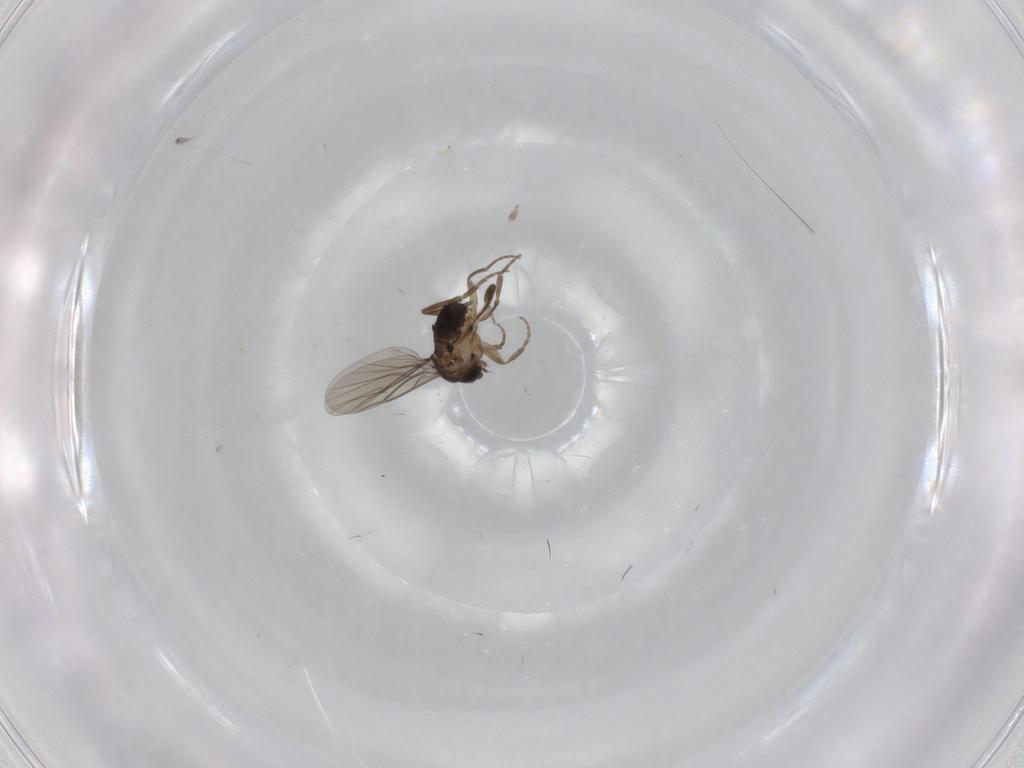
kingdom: Animalia
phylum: Arthropoda
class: Insecta
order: Diptera
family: Phoridae
